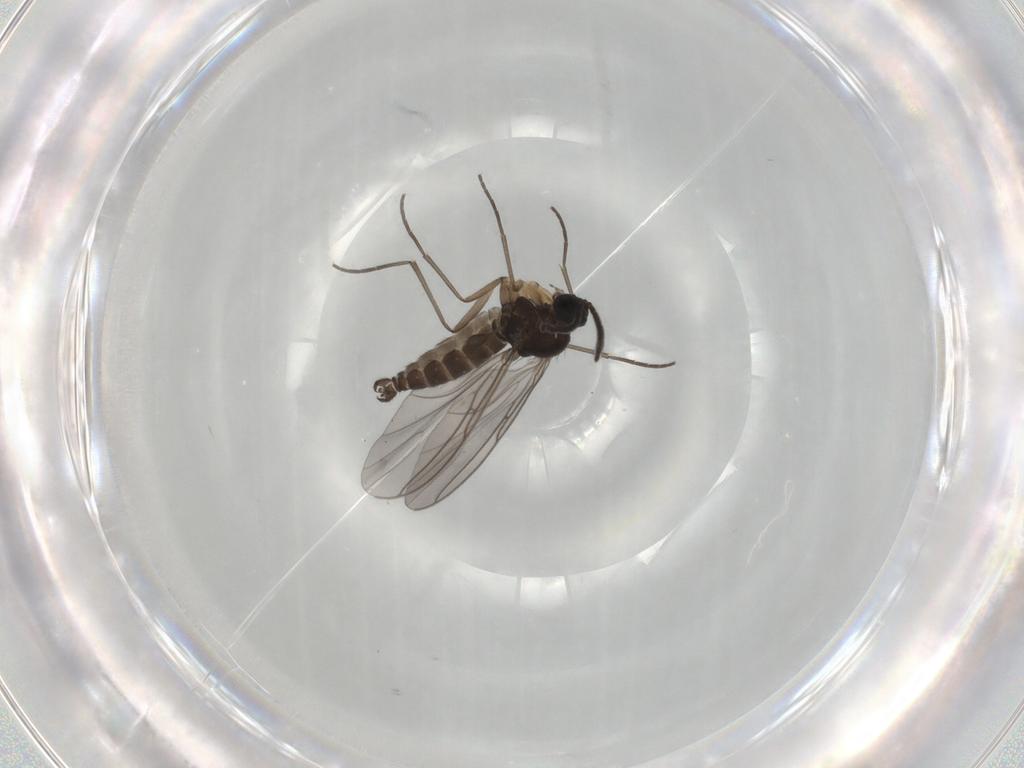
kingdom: Animalia
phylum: Arthropoda
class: Insecta
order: Diptera
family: Sciaridae
